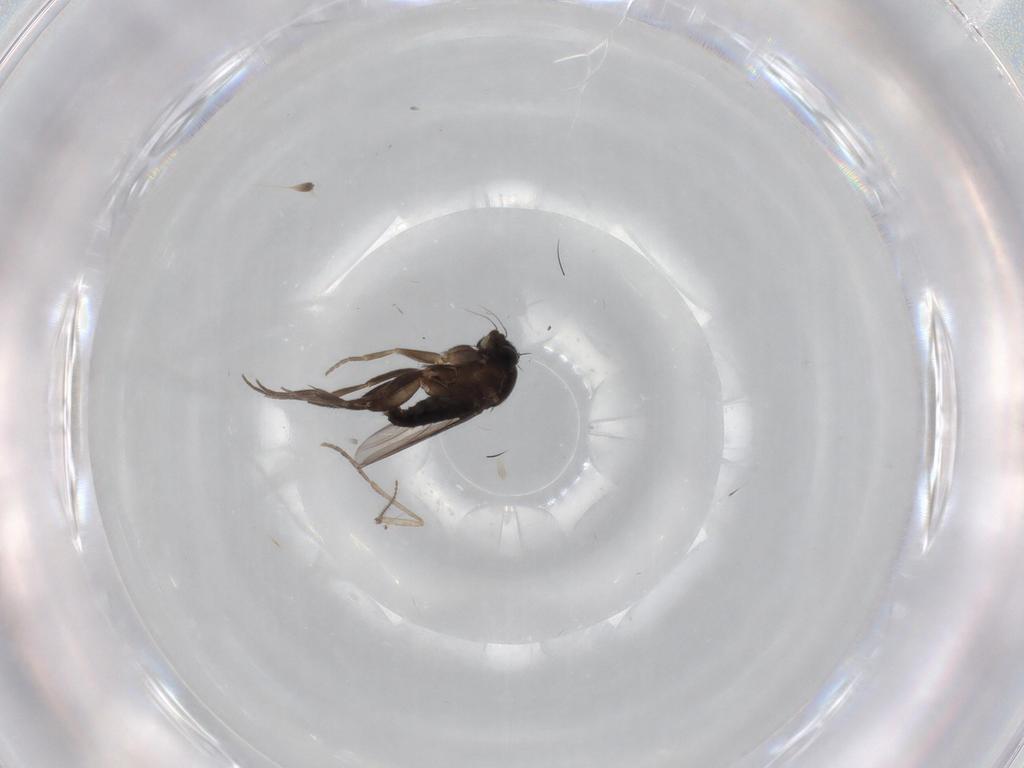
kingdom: Animalia
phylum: Arthropoda
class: Insecta
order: Diptera
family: Phoridae
